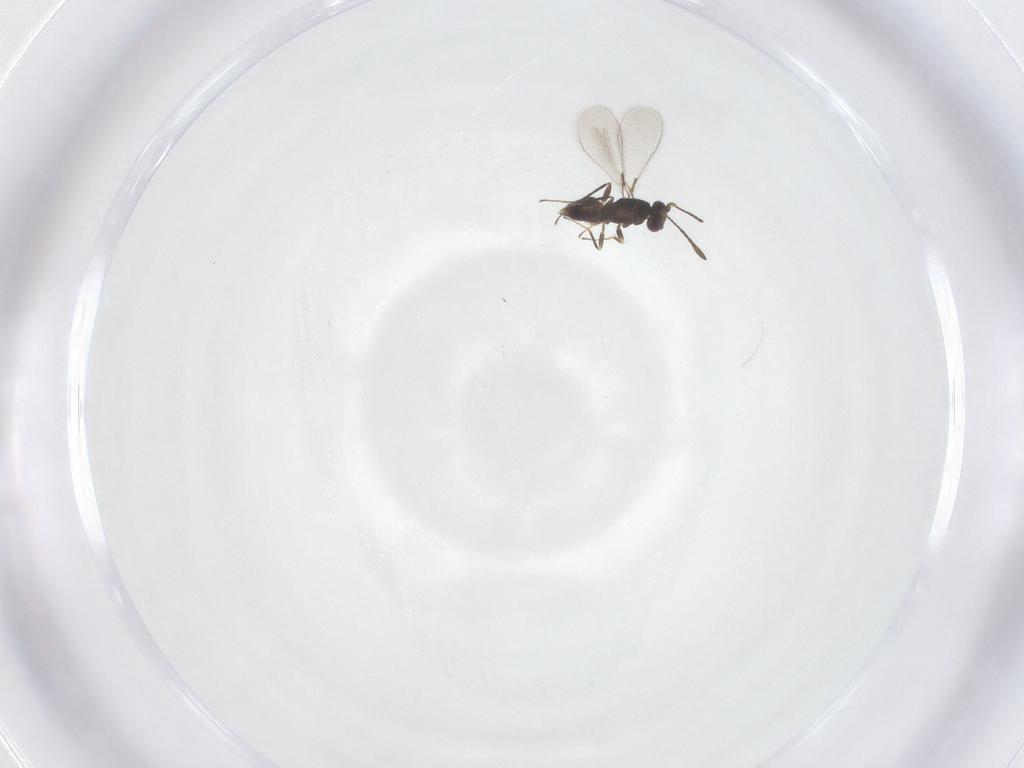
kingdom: Animalia
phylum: Arthropoda
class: Insecta
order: Hymenoptera
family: Mymaridae
